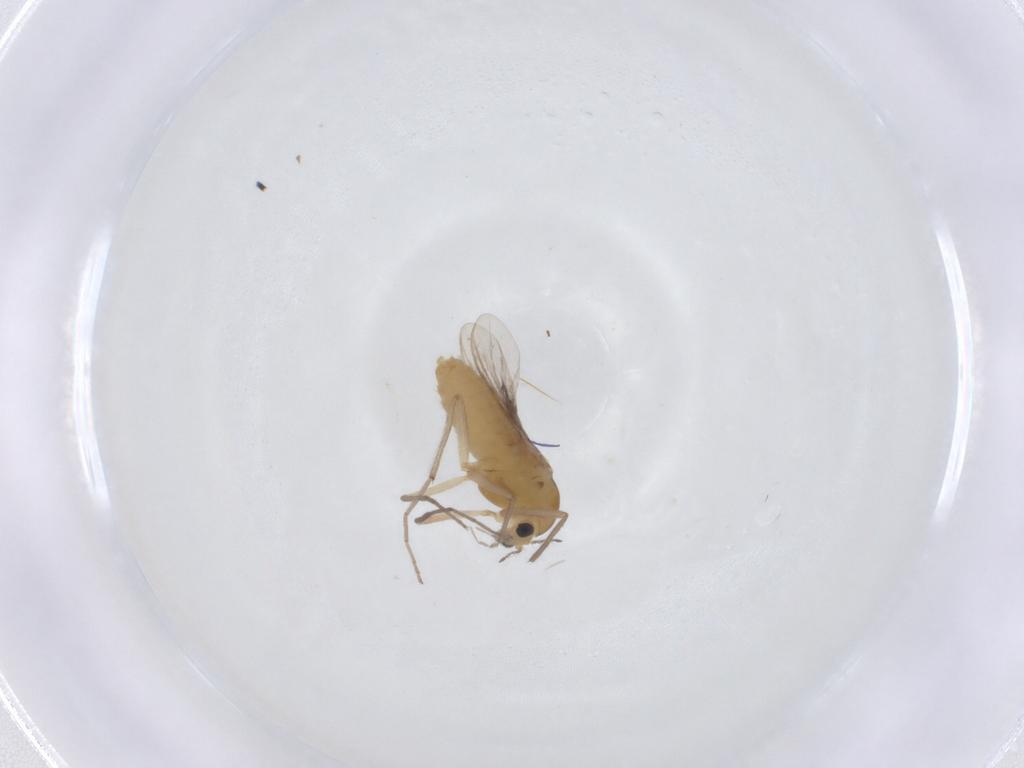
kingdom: Animalia
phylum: Arthropoda
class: Insecta
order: Diptera
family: Chironomidae
